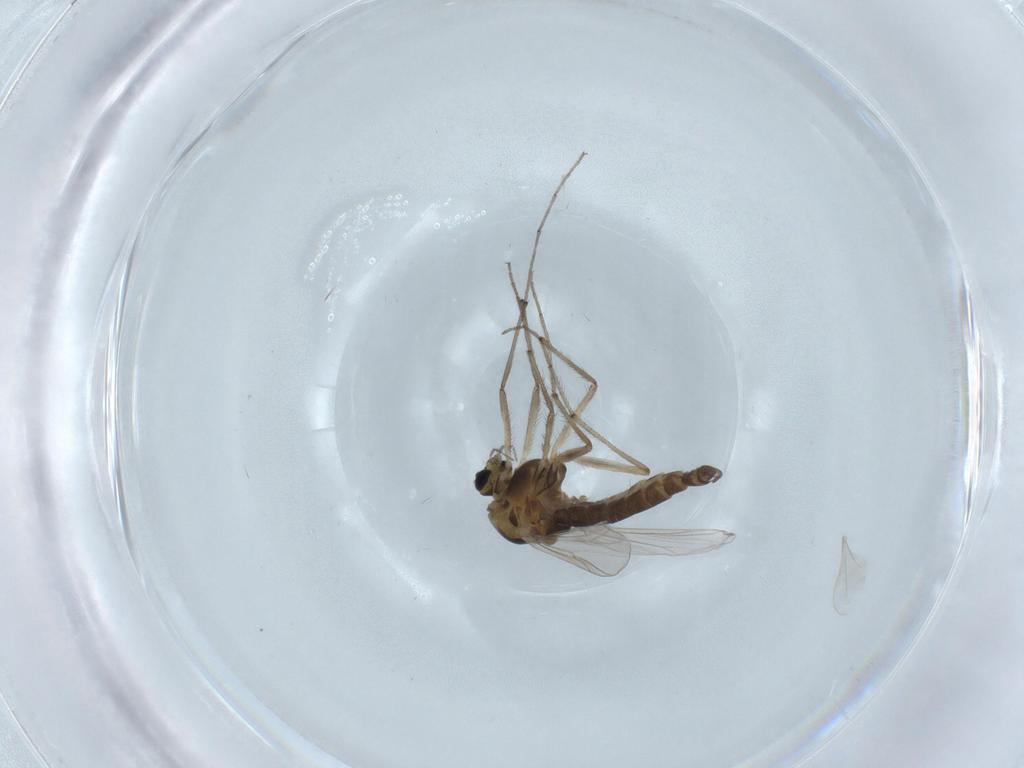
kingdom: Animalia
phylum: Arthropoda
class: Insecta
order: Diptera
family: Chironomidae
